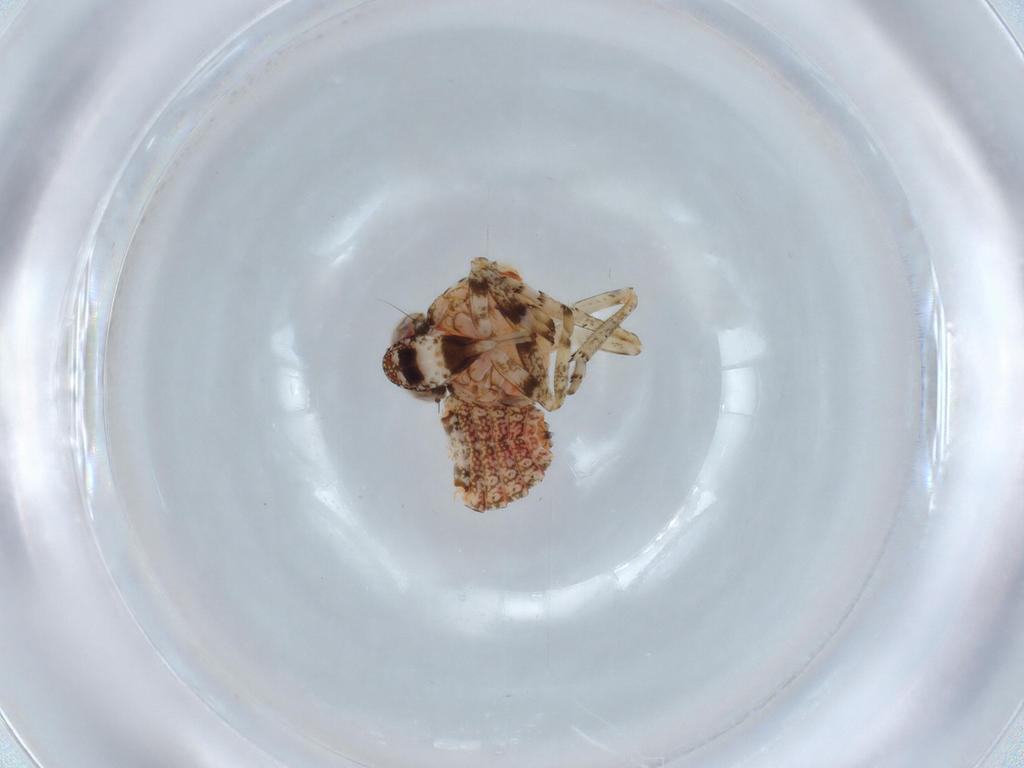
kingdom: Animalia
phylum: Arthropoda
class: Insecta
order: Hemiptera
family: Issidae
